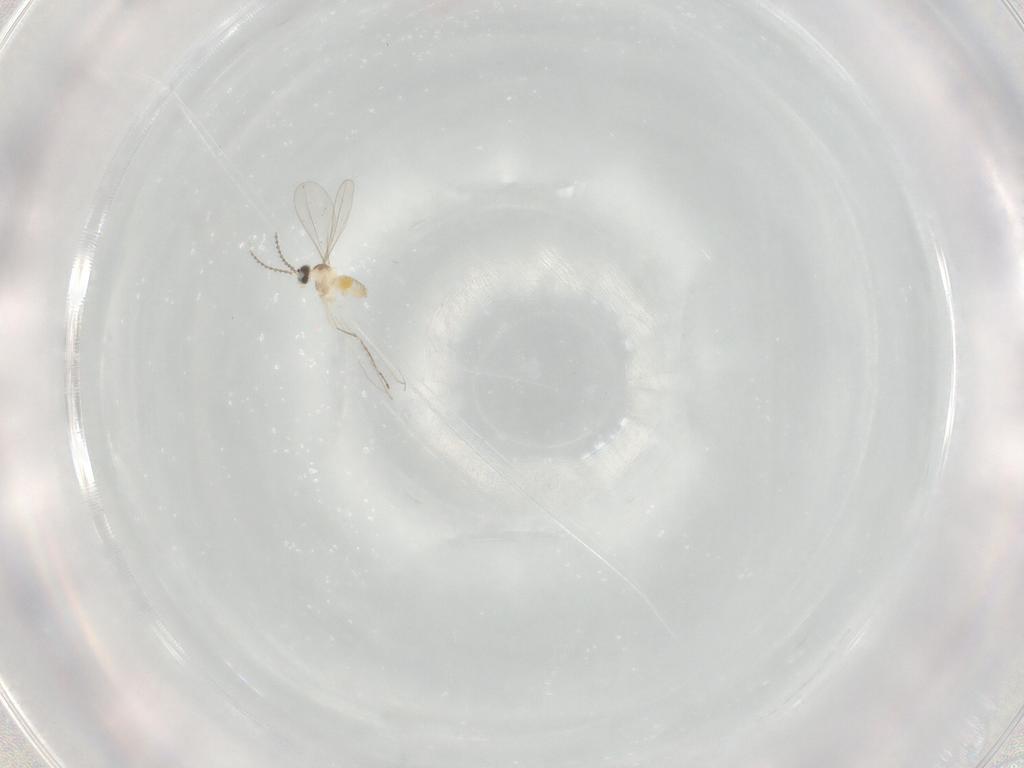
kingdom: Animalia
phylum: Arthropoda
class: Insecta
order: Diptera
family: Cecidomyiidae
